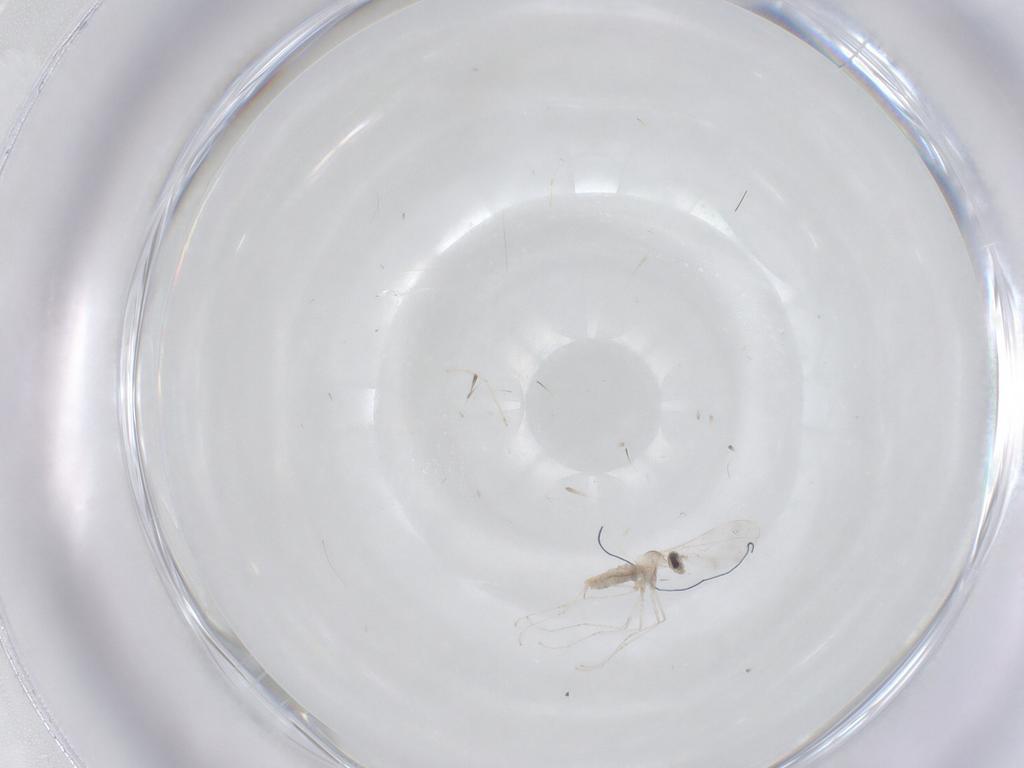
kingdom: Animalia
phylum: Arthropoda
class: Insecta
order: Diptera
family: Cecidomyiidae
